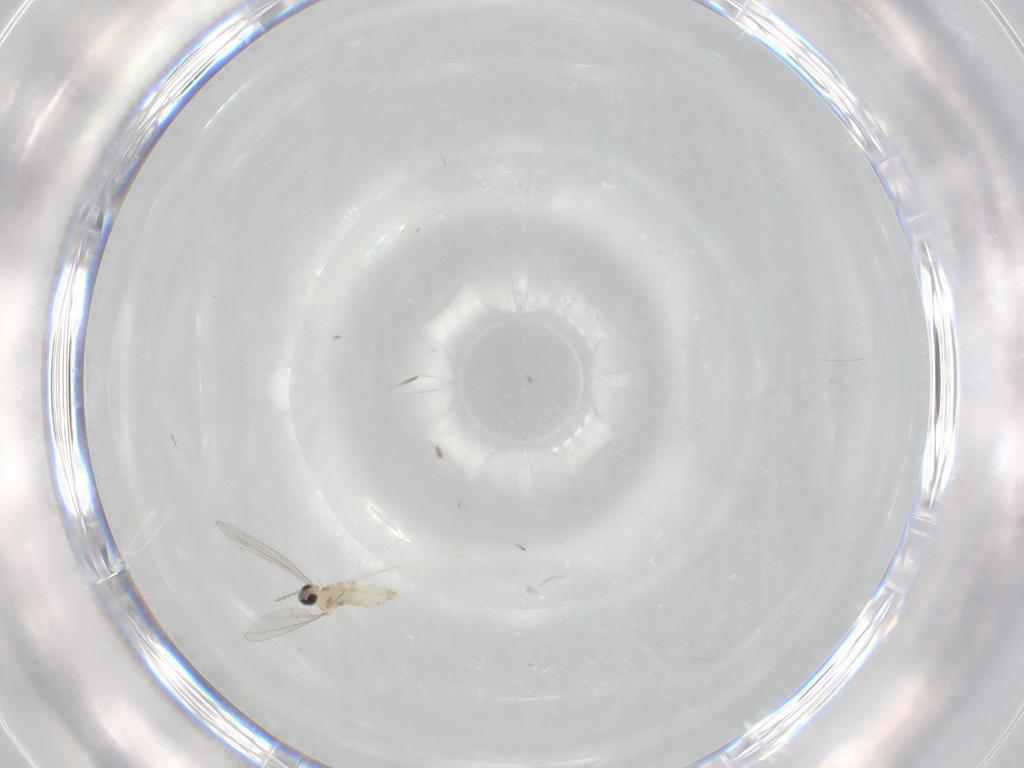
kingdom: Animalia
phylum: Arthropoda
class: Insecta
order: Diptera
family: Cecidomyiidae
